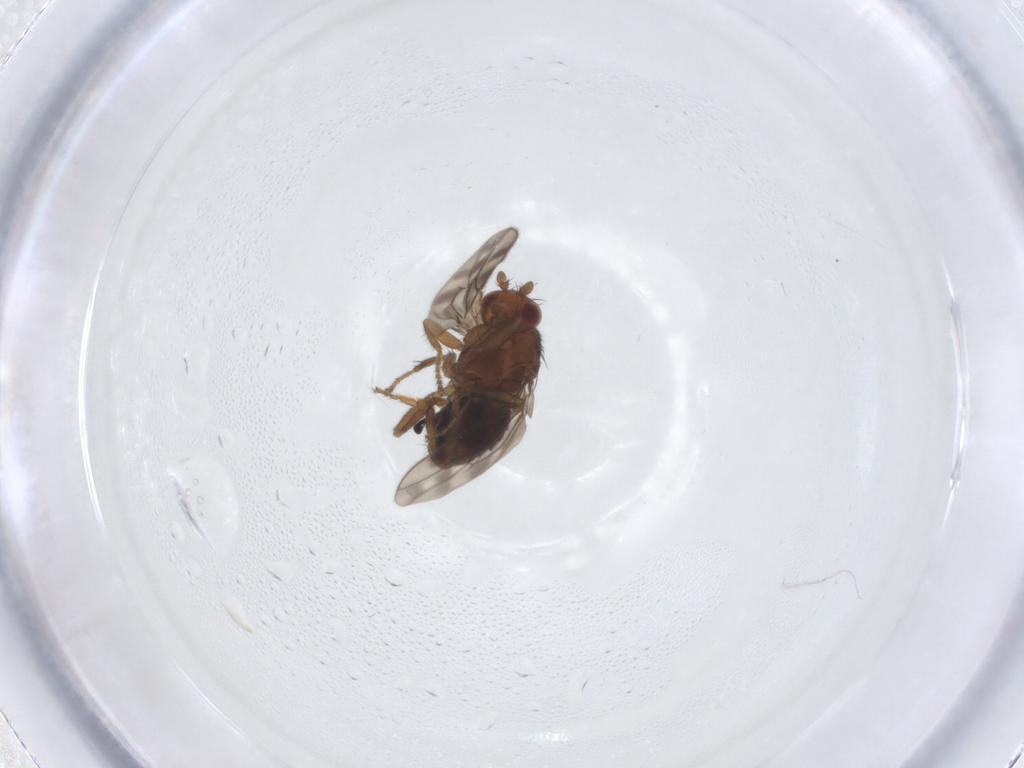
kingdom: Animalia
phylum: Arthropoda
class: Insecta
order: Diptera
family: Sphaeroceridae
